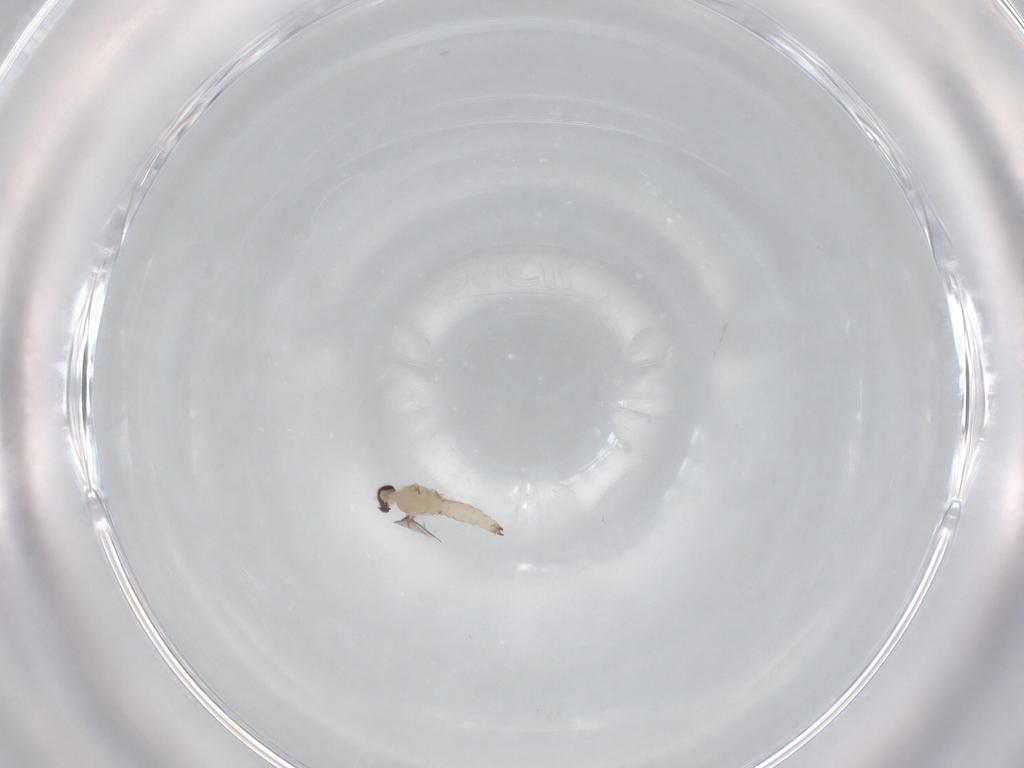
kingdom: Animalia
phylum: Arthropoda
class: Insecta
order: Diptera
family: Cecidomyiidae
